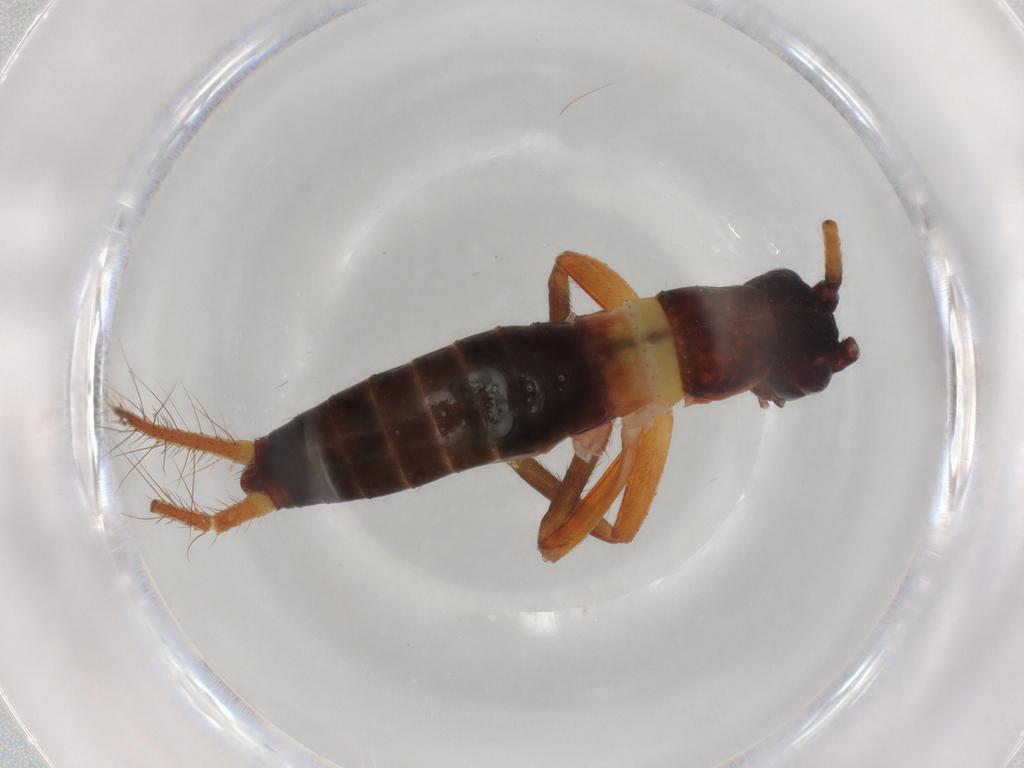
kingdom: Animalia
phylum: Arthropoda
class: Insecta
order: Orthoptera
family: Gryllidae
